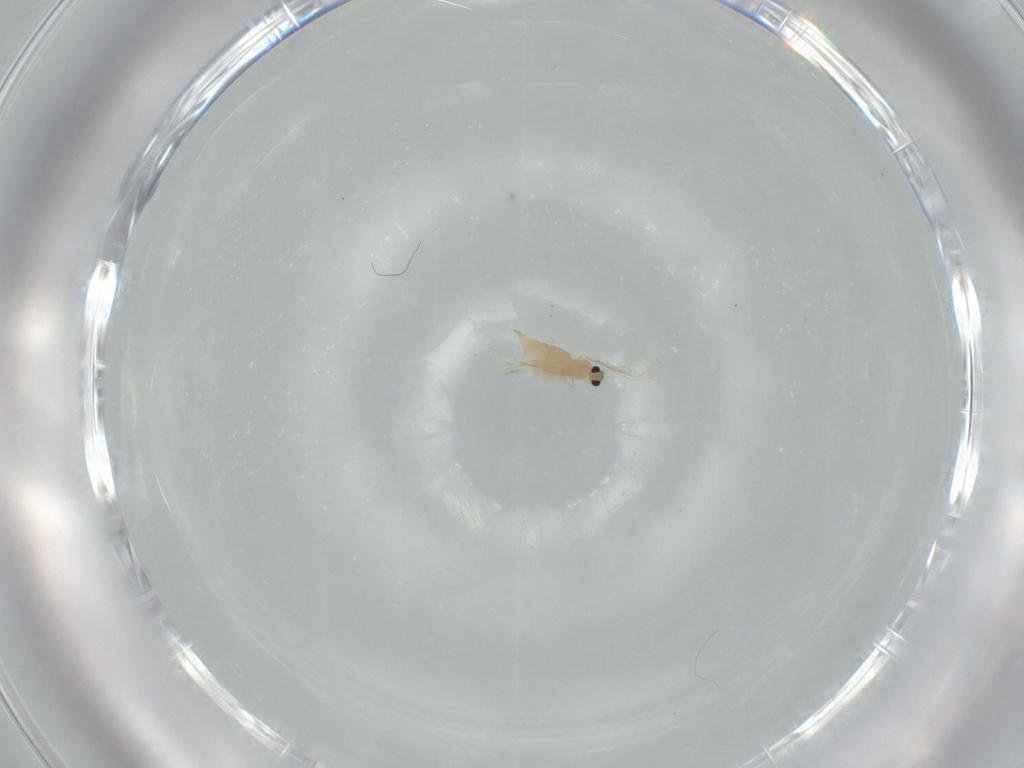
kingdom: Animalia
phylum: Arthropoda
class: Insecta
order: Diptera
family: Cecidomyiidae
